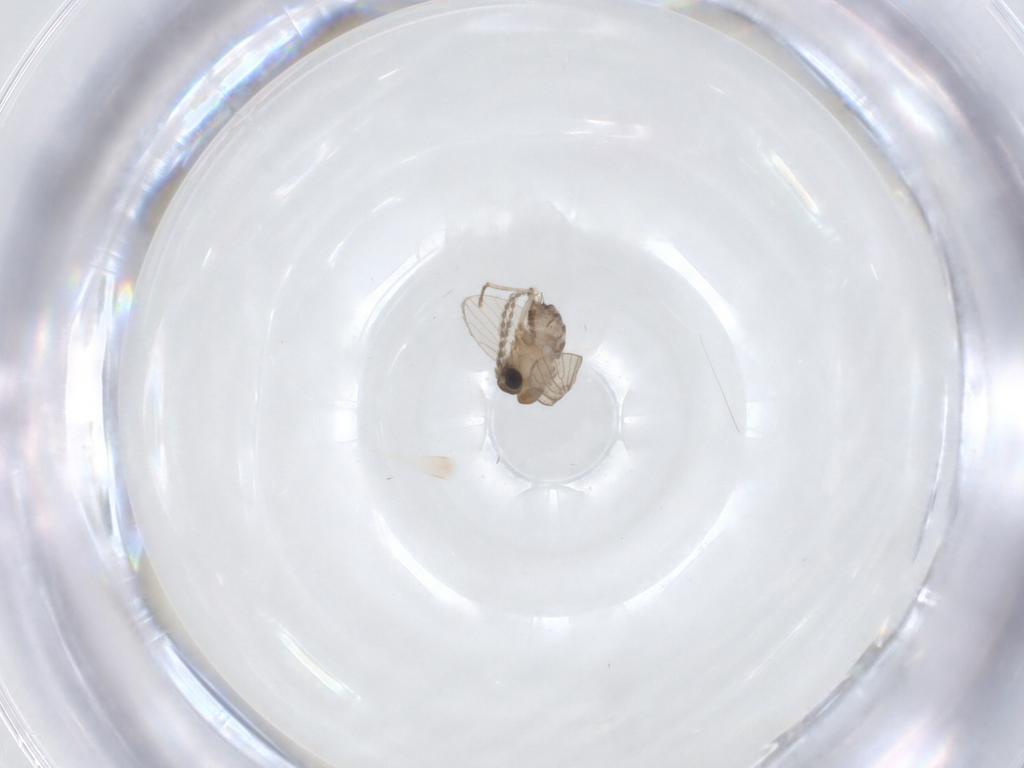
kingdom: Animalia
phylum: Arthropoda
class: Insecta
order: Diptera
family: Psychodidae
